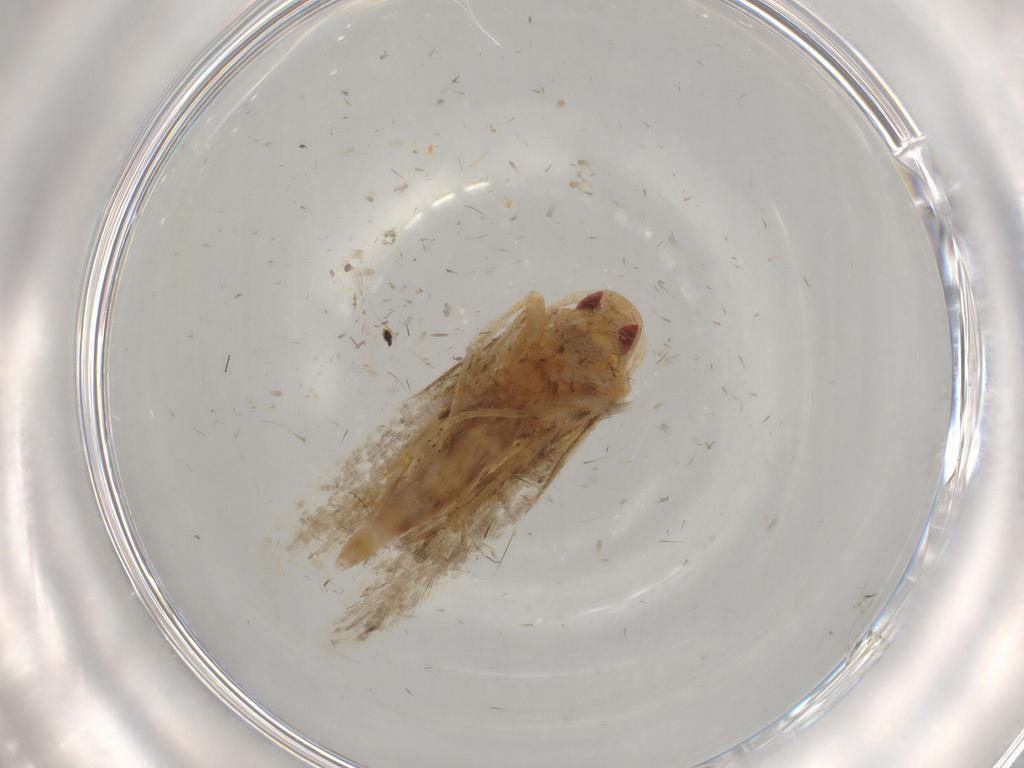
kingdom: Animalia
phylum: Arthropoda
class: Insecta
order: Lepidoptera
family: Cosmopterigidae
